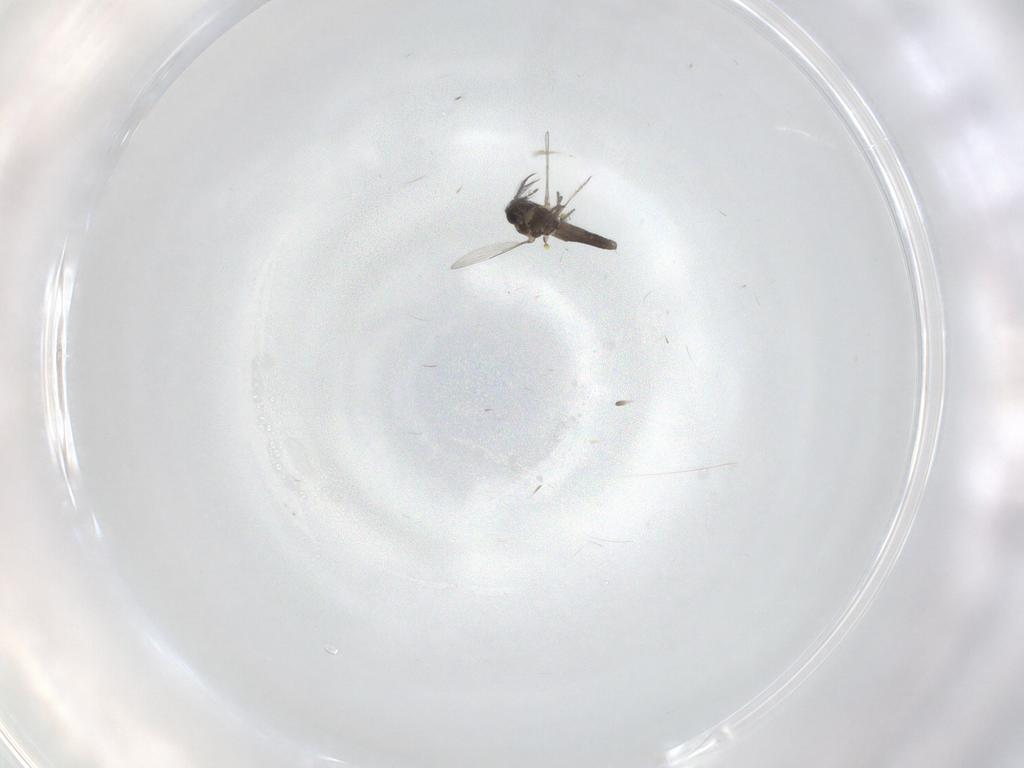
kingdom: Animalia
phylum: Arthropoda
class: Insecta
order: Diptera
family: Ceratopogonidae
